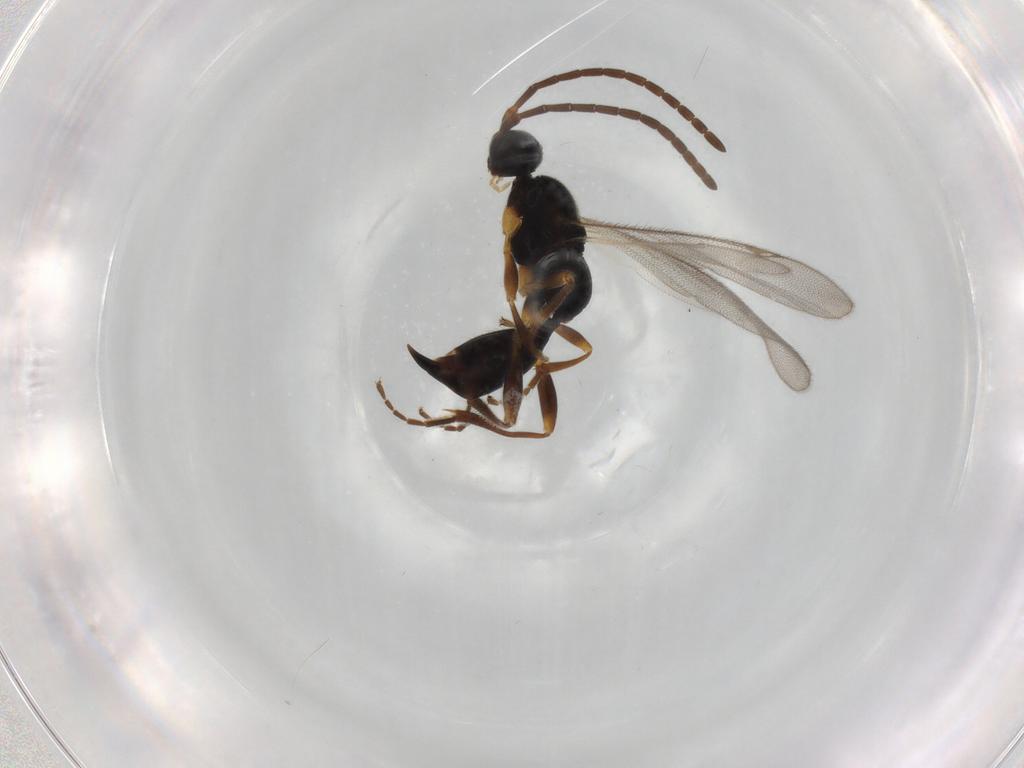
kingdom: Animalia
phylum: Arthropoda
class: Insecta
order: Hymenoptera
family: Proctotrupidae
